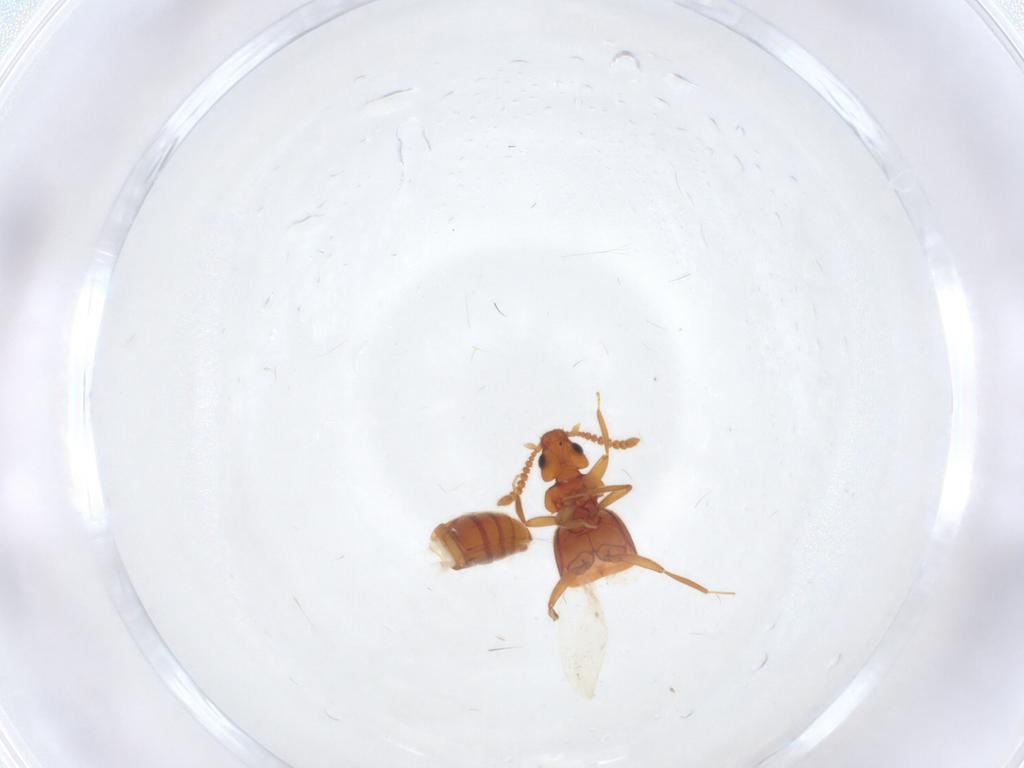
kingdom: Animalia
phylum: Arthropoda
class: Insecta
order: Coleoptera
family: Staphylinidae
